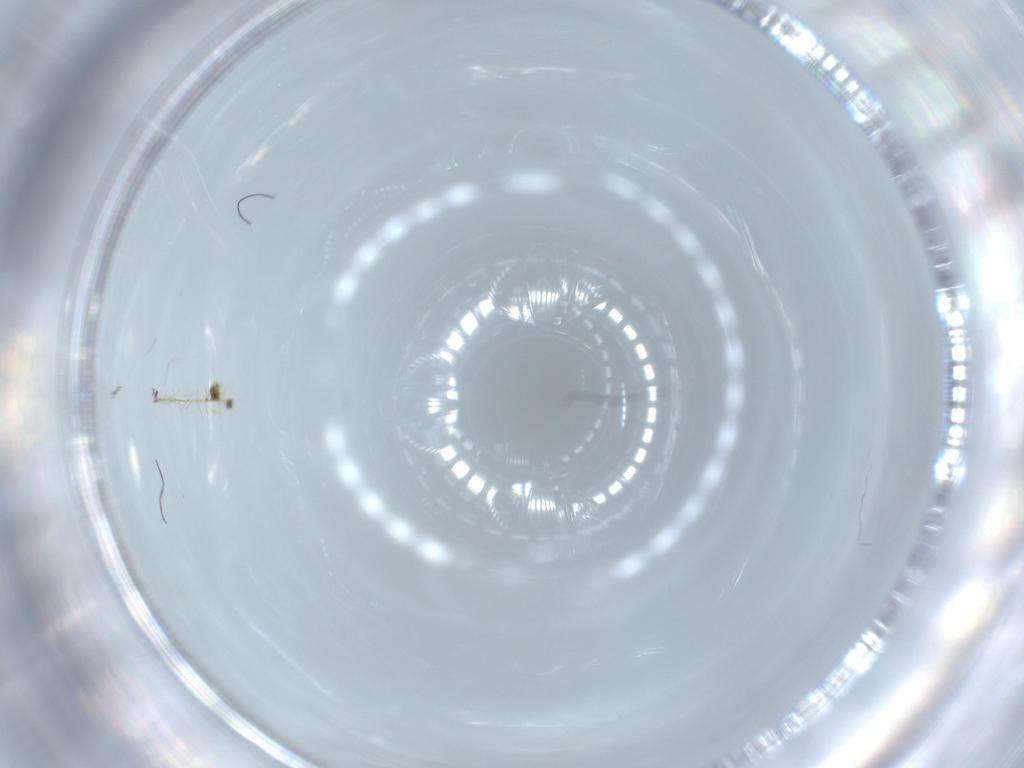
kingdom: Animalia
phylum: Arthropoda
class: Insecta
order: Diptera
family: Sciaridae
